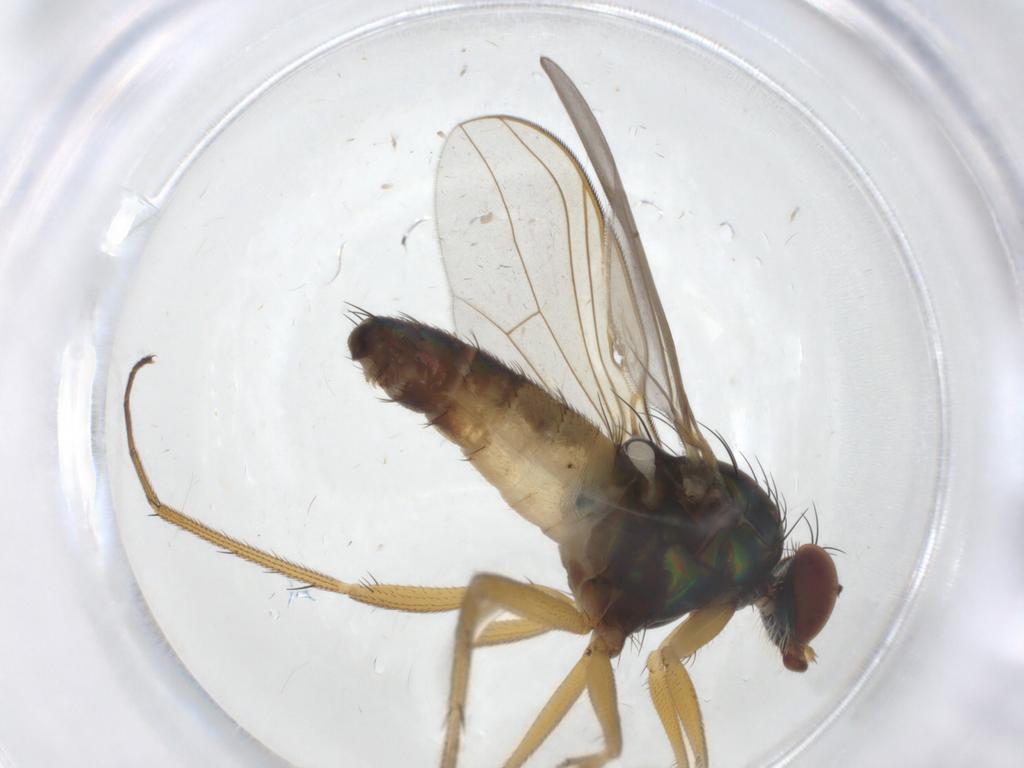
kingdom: Animalia
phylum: Arthropoda
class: Insecta
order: Diptera
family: Ceratopogonidae
